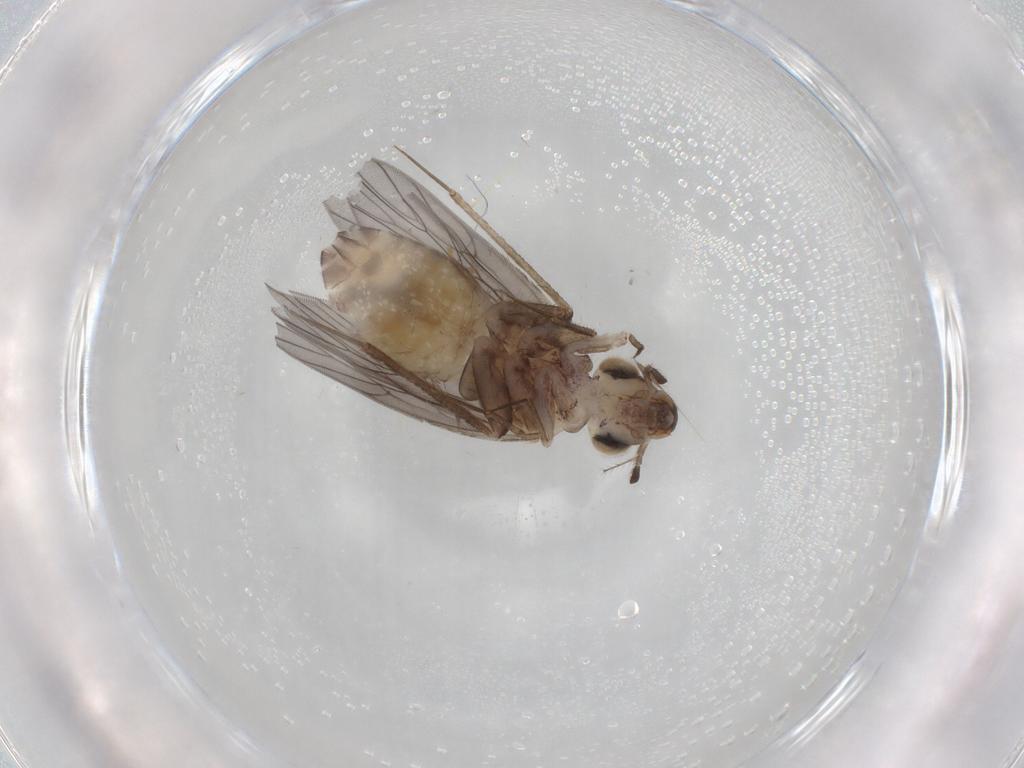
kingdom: Animalia
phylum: Arthropoda
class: Insecta
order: Psocodea
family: Lepidopsocidae
